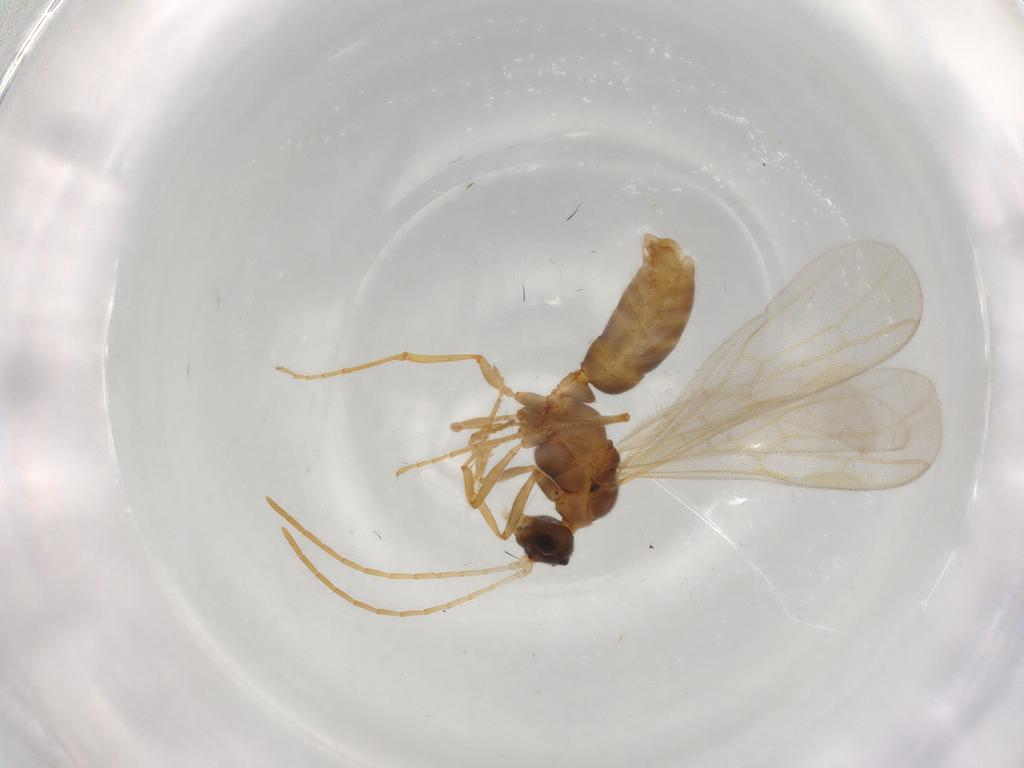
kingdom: Animalia
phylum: Arthropoda
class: Insecta
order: Hymenoptera
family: Formicidae
